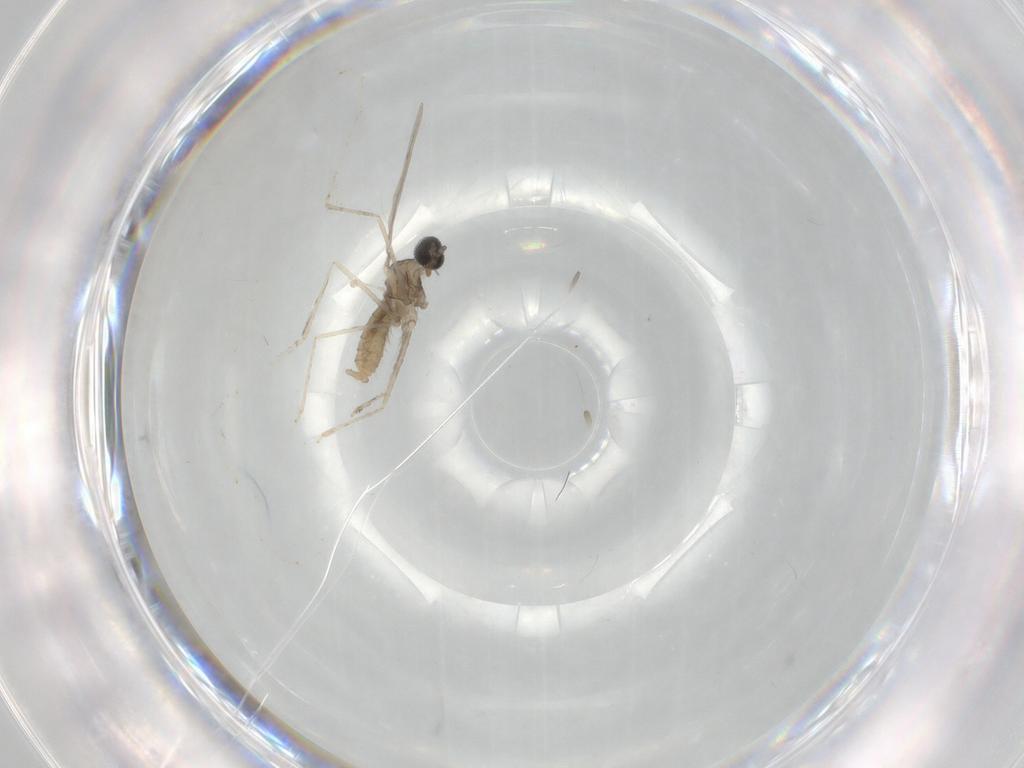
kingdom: Animalia
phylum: Arthropoda
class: Insecta
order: Diptera
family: Cecidomyiidae
